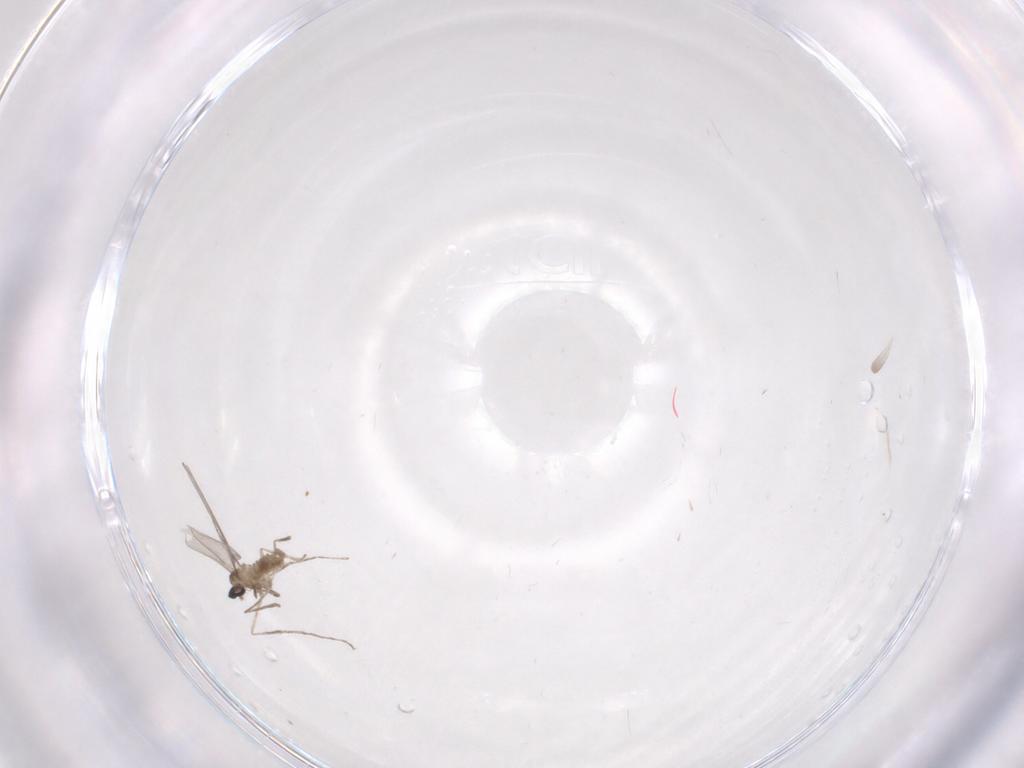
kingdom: Animalia
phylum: Arthropoda
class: Insecta
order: Diptera
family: Cecidomyiidae
